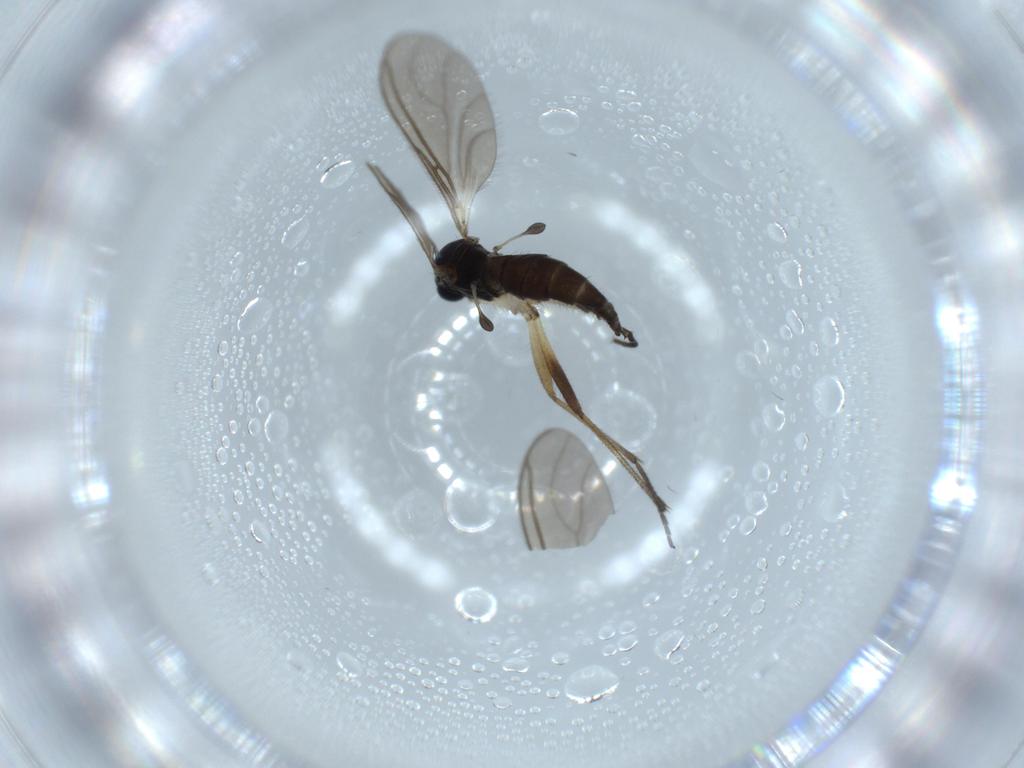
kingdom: Animalia
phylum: Arthropoda
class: Insecta
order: Diptera
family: Sciaridae
